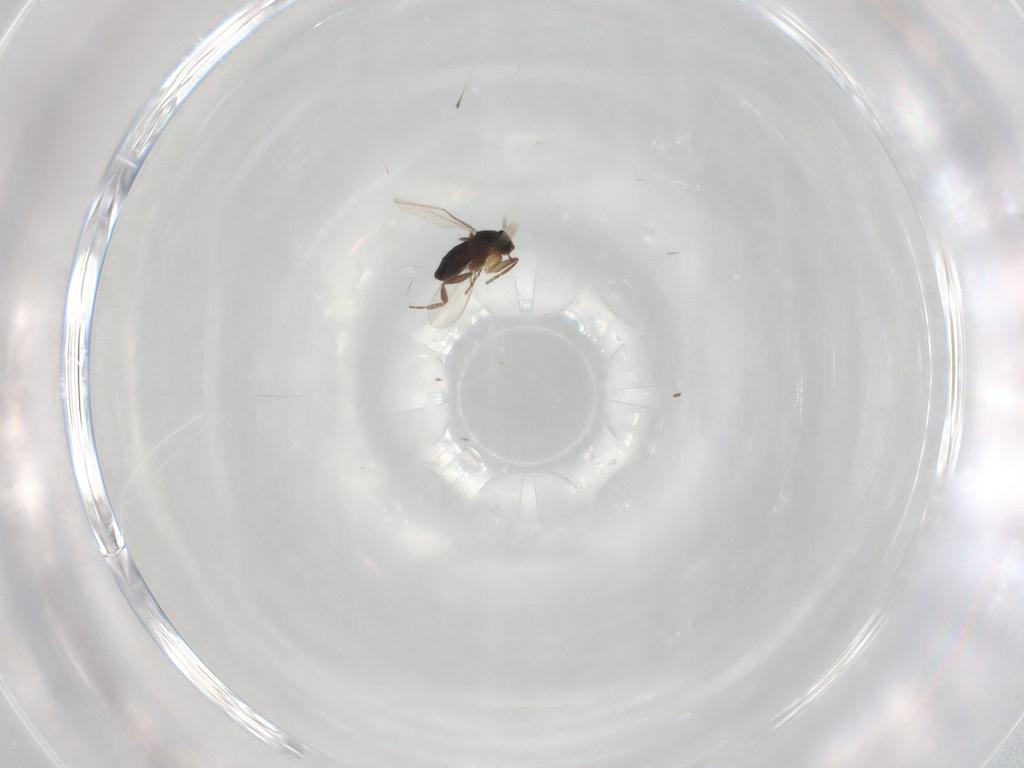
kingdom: Animalia
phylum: Arthropoda
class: Insecta
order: Diptera
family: Phoridae
